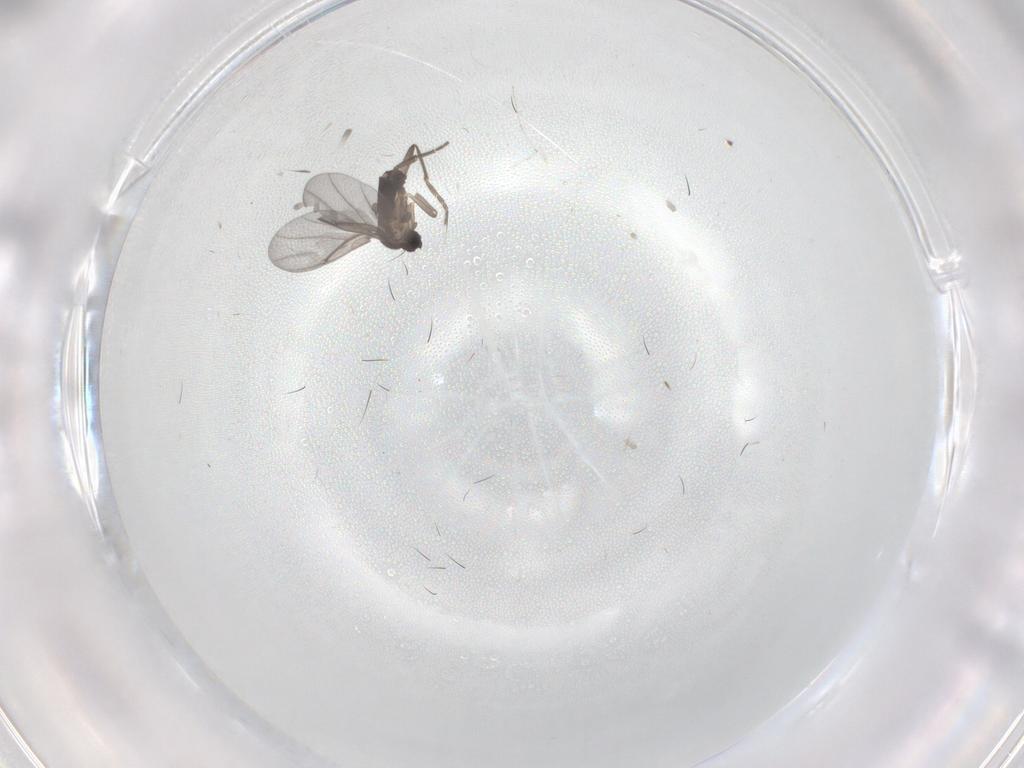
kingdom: Animalia
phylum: Arthropoda
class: Insecta
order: Diptera
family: Phoridae
